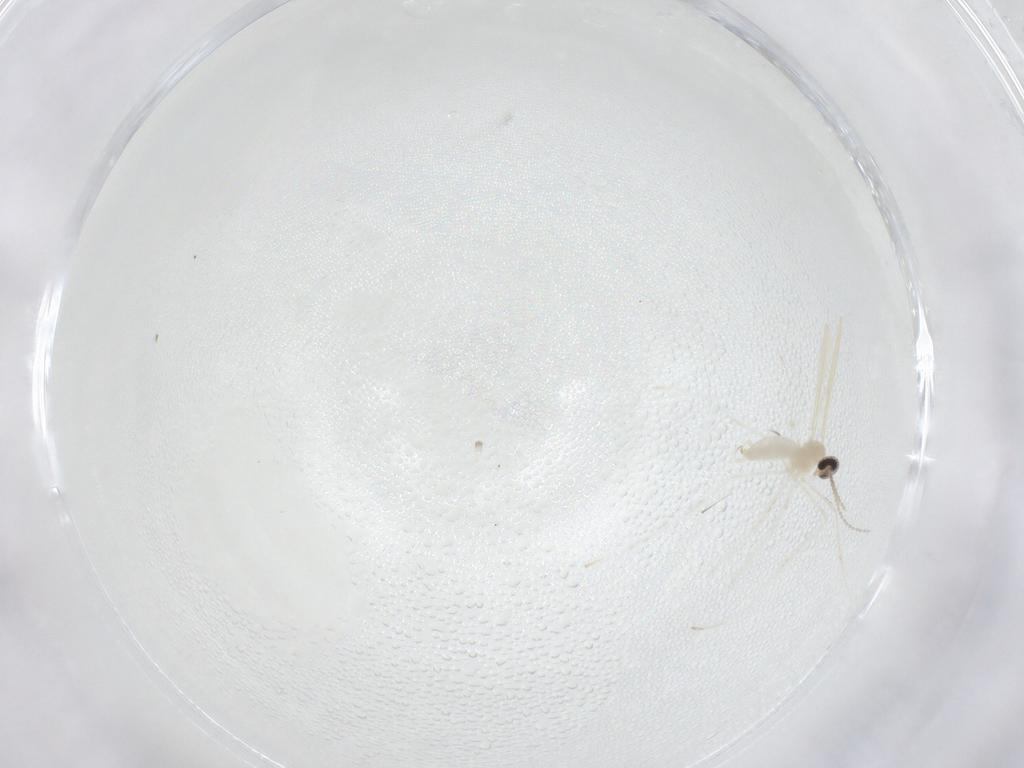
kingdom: Animalia
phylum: Arthropoda
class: Insecta
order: Diptera
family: Cecidomyiidae
